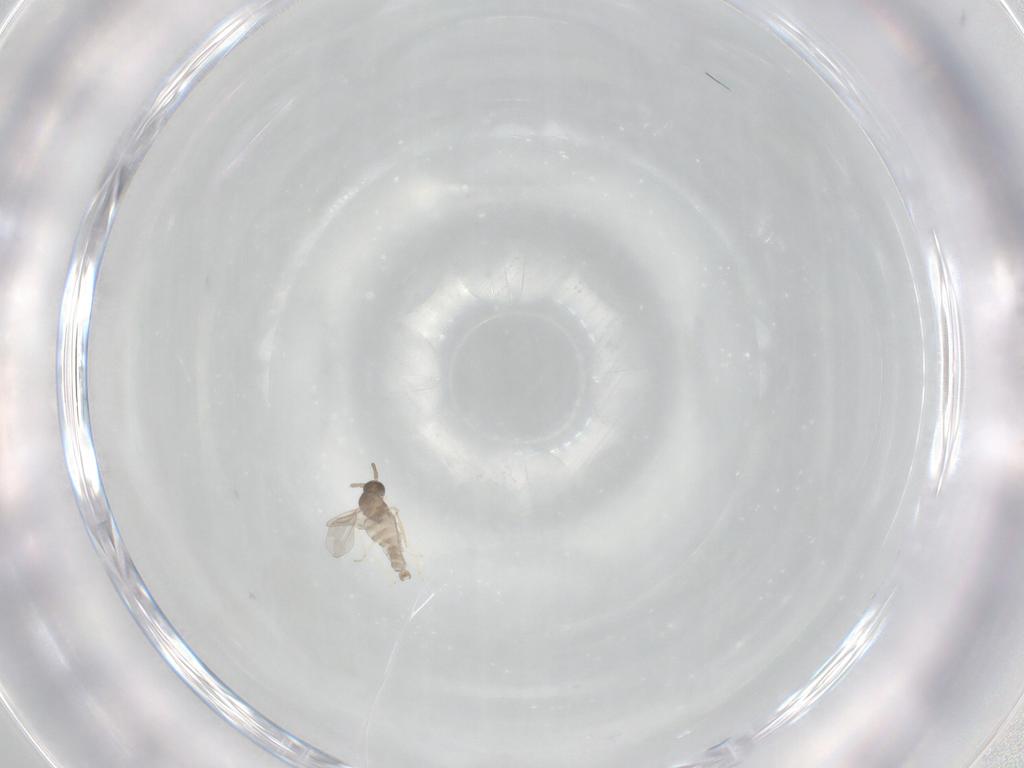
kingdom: Animalia
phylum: Arthropoda
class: Insecta
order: Diptera
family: Cecidomyiidae
